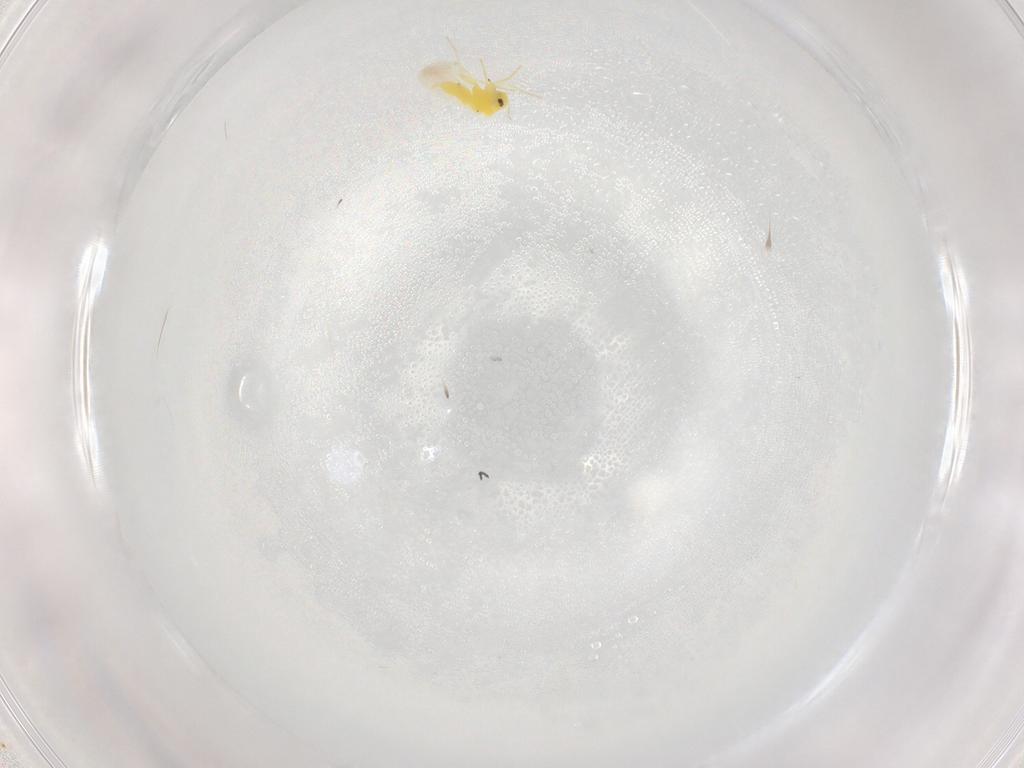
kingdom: Animalia
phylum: Arthropoda
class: Insecta
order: Hemiptera
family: Aleyrodidae
